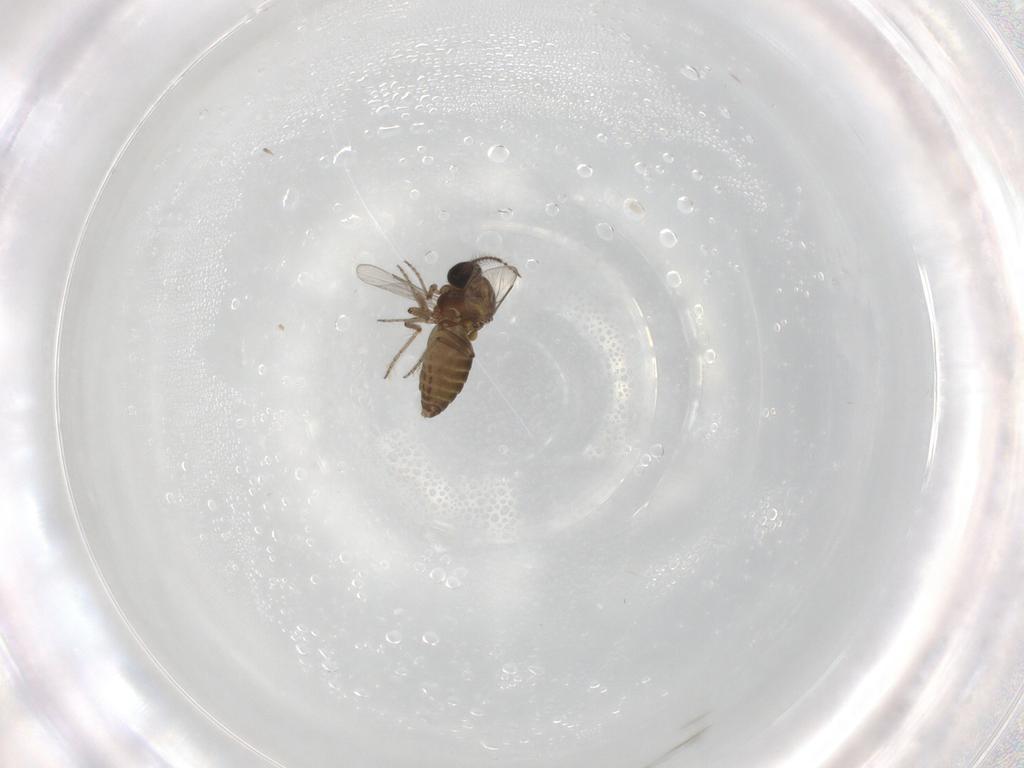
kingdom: Animalia
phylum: Arthropoda
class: Insecta
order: Diptera
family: Ceratopogonidae
